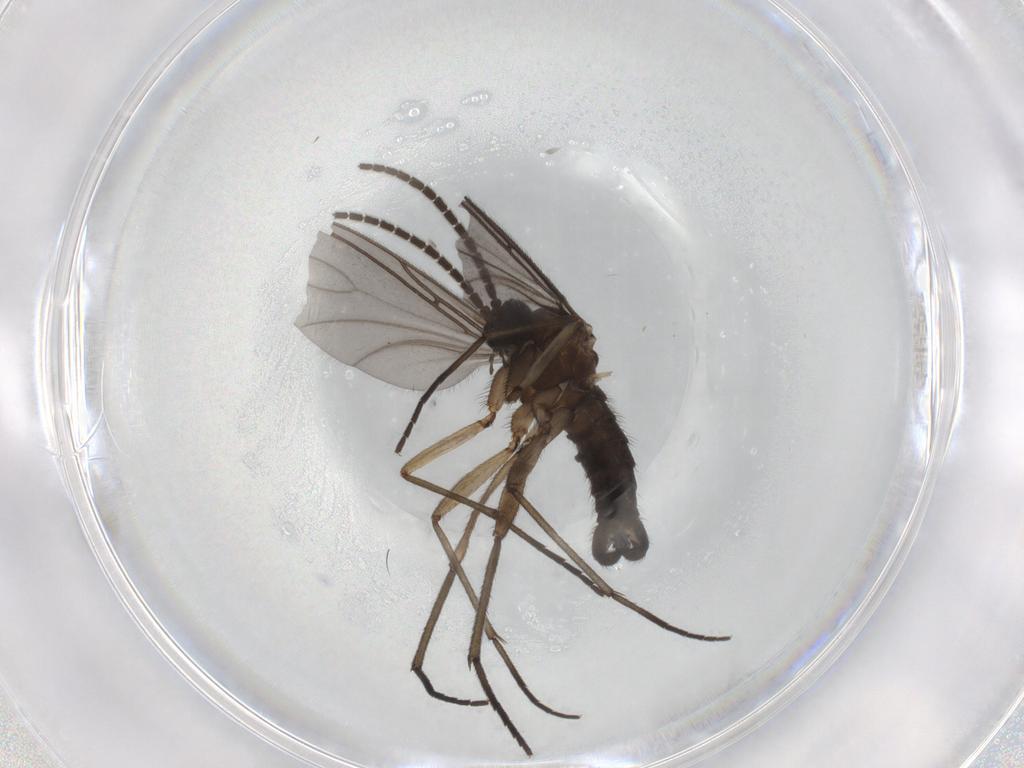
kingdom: Animalia
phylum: Arthropoda
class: Insecta
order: Diptera
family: Sciaridae
